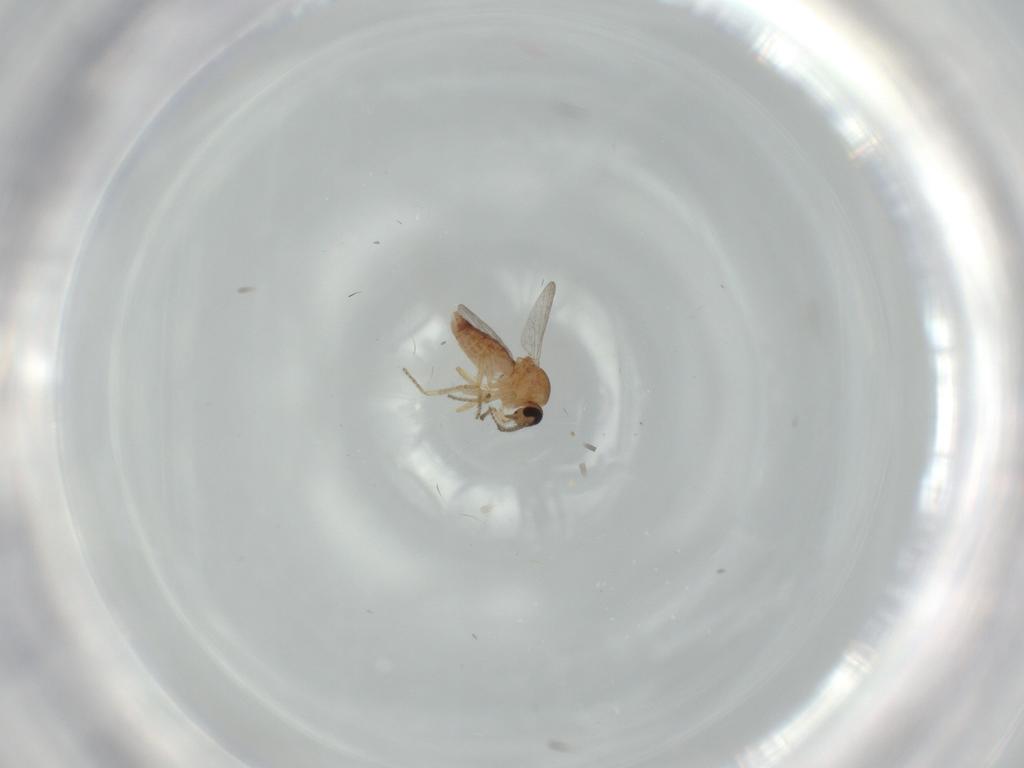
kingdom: Animalia
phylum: Arthropoda
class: Insecta
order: Diptera
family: Ceratopogonidae
